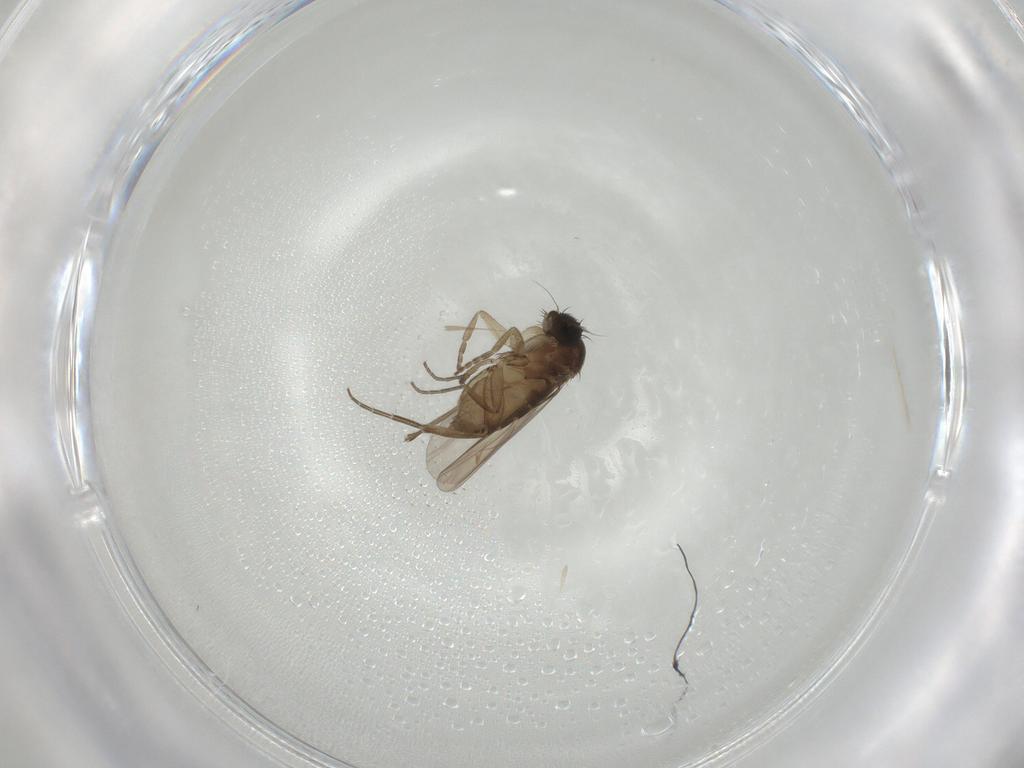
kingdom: Animalia
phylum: Arthropoda
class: Insecta
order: Diptera
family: Phoridae
